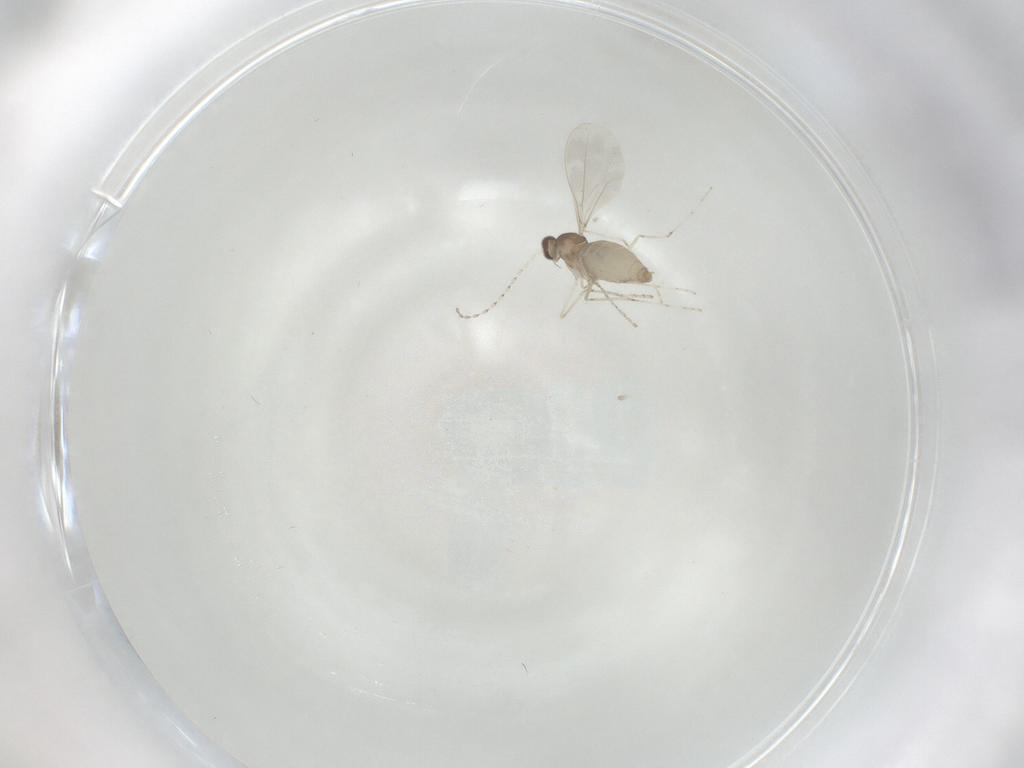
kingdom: Animalia
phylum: Arthropoda
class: Insecta
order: Diptera
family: Cecidomyiidae
